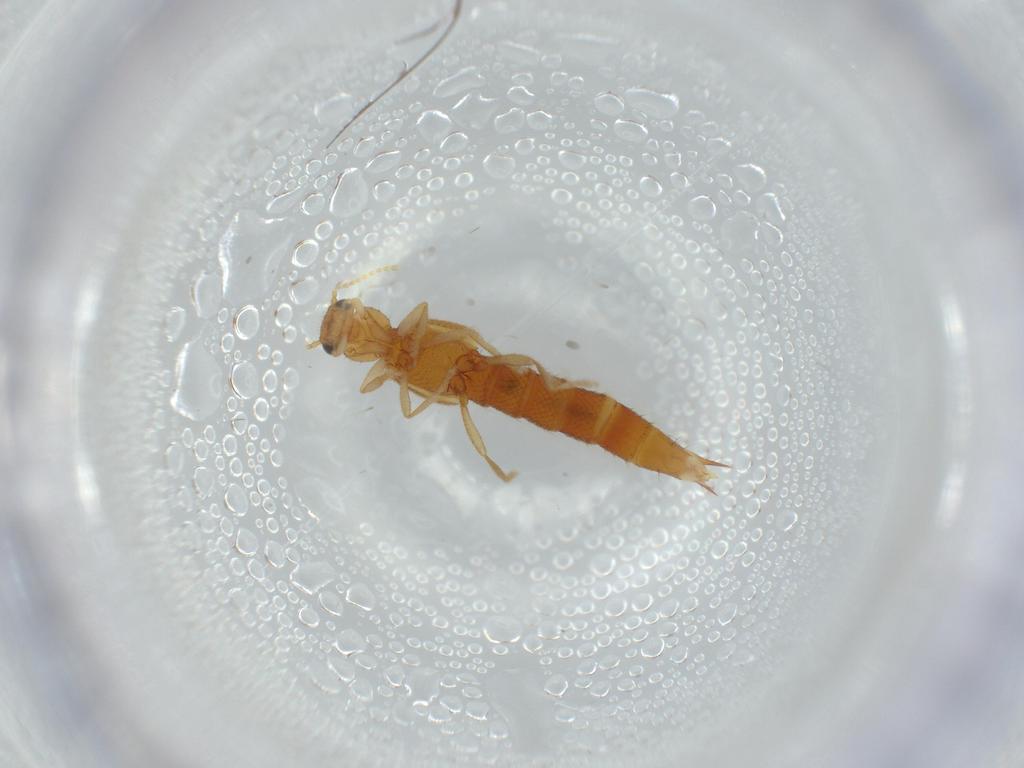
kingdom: Animalia
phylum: Arthropoda
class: Insecta
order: Coleoptera
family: Staphylinidae
